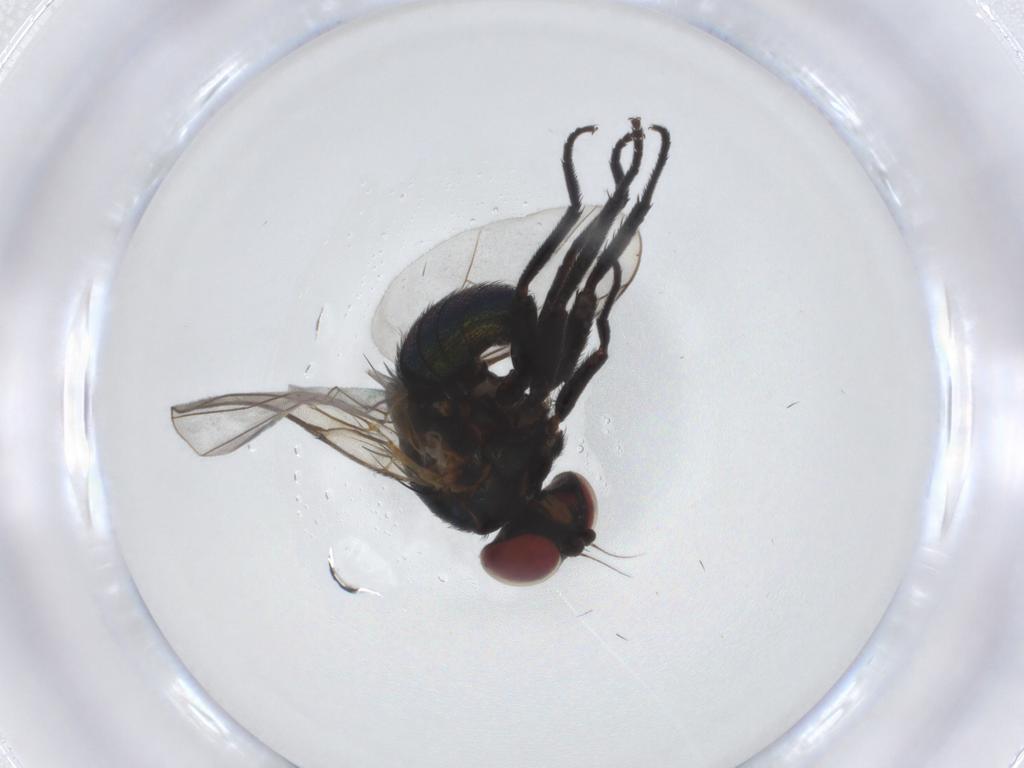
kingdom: Animalia
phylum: Arthropoda
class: Insecta
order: Diptera
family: Agromyzidae
